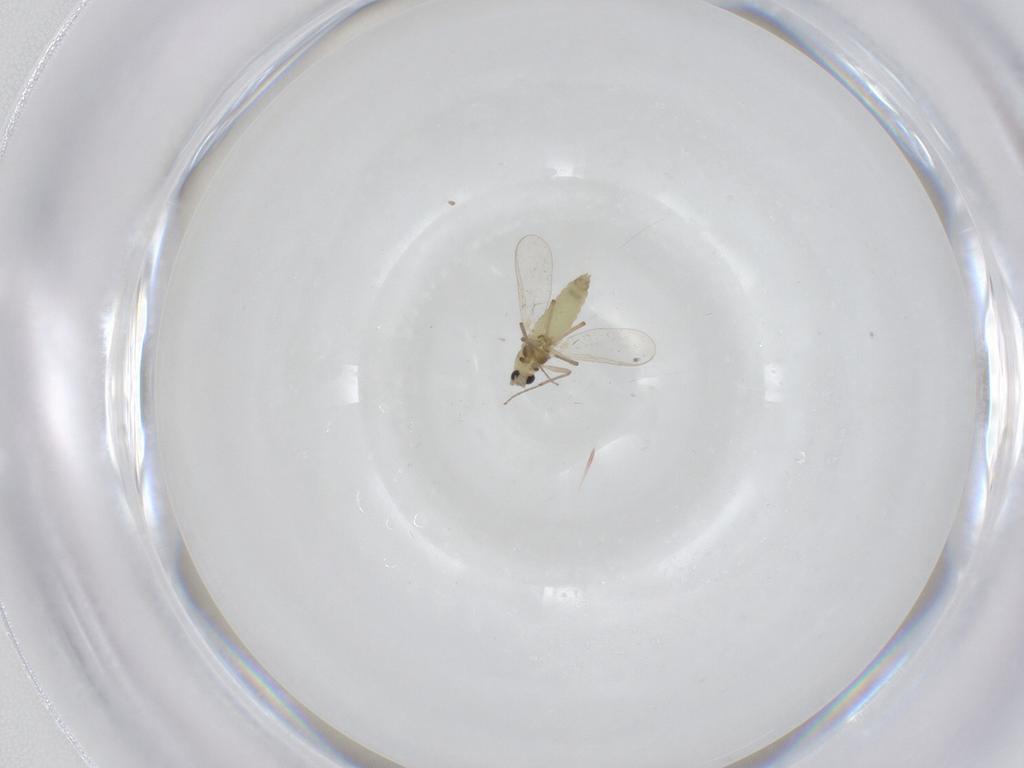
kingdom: Animalia
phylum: Arthropoda
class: Insecta
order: Diptera
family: Chironomidae
